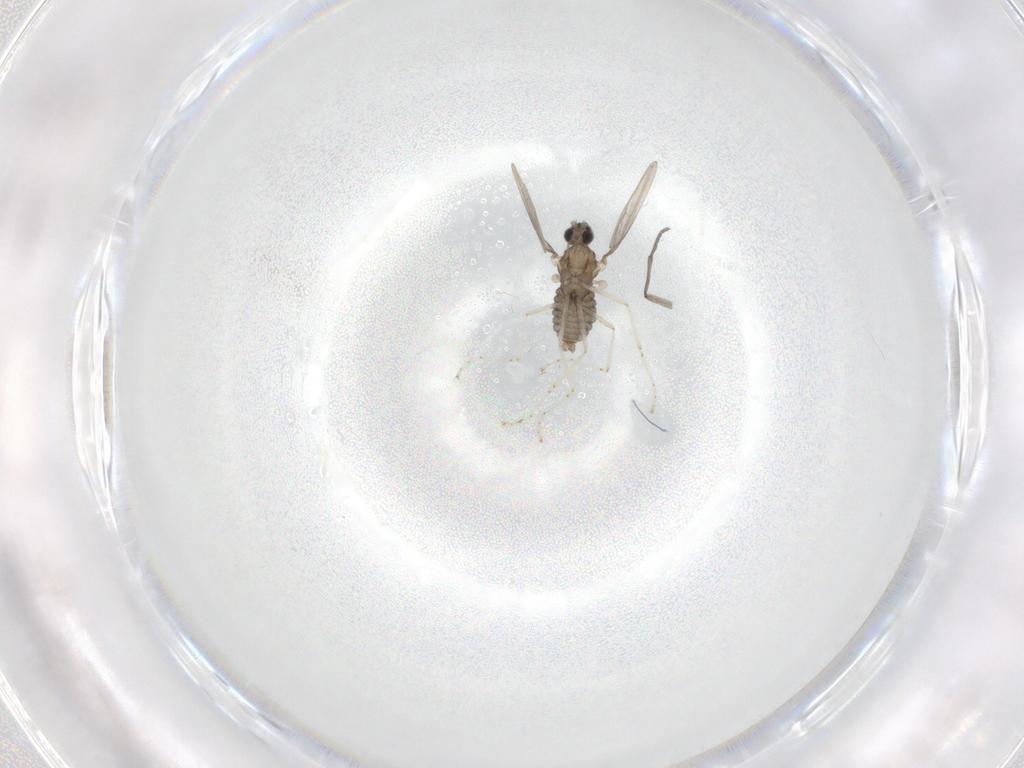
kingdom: Animalia
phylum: Arthropoda
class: Insecta
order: Diptera
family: Cecidomyiidae
